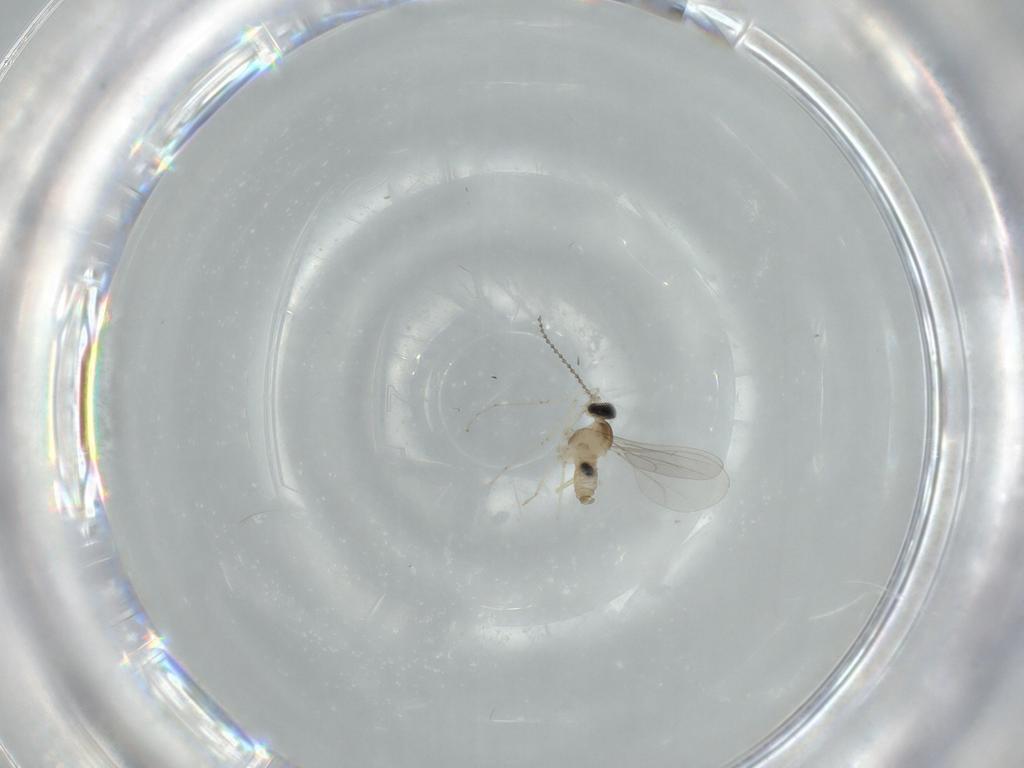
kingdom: Animalia
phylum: Arthropoda
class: Insecta
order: Diptera
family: Cecidomyiidae
